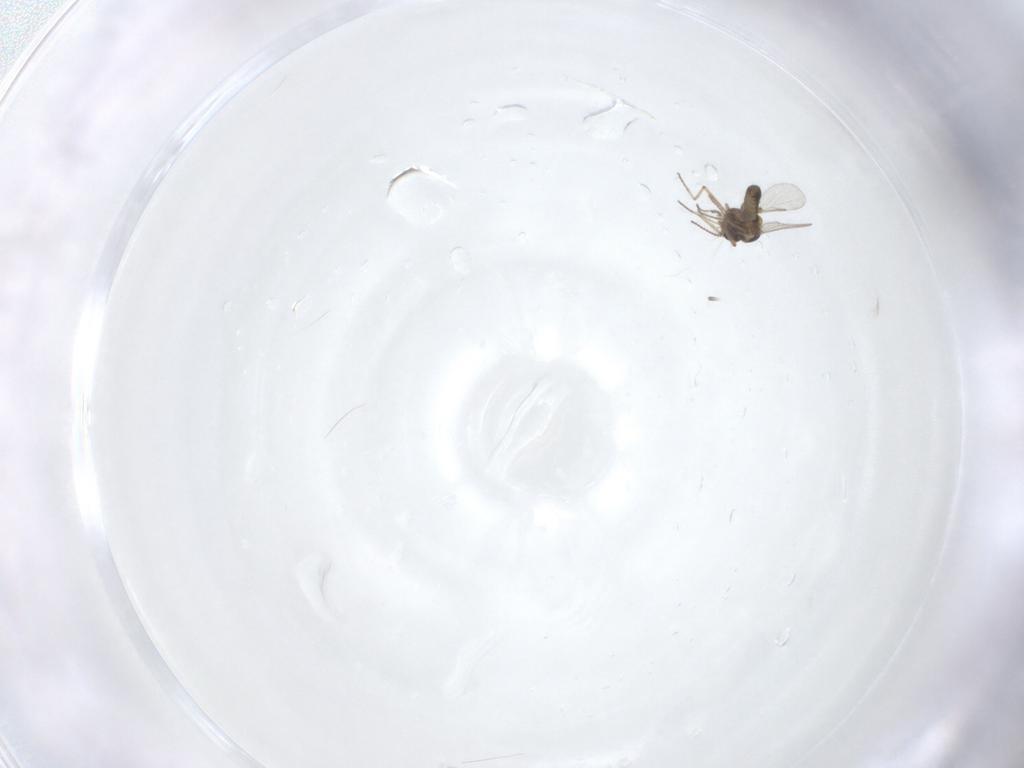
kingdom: Animalia
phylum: Arthropoda
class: Insecta
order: Diptera
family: Ceratopogonidae
